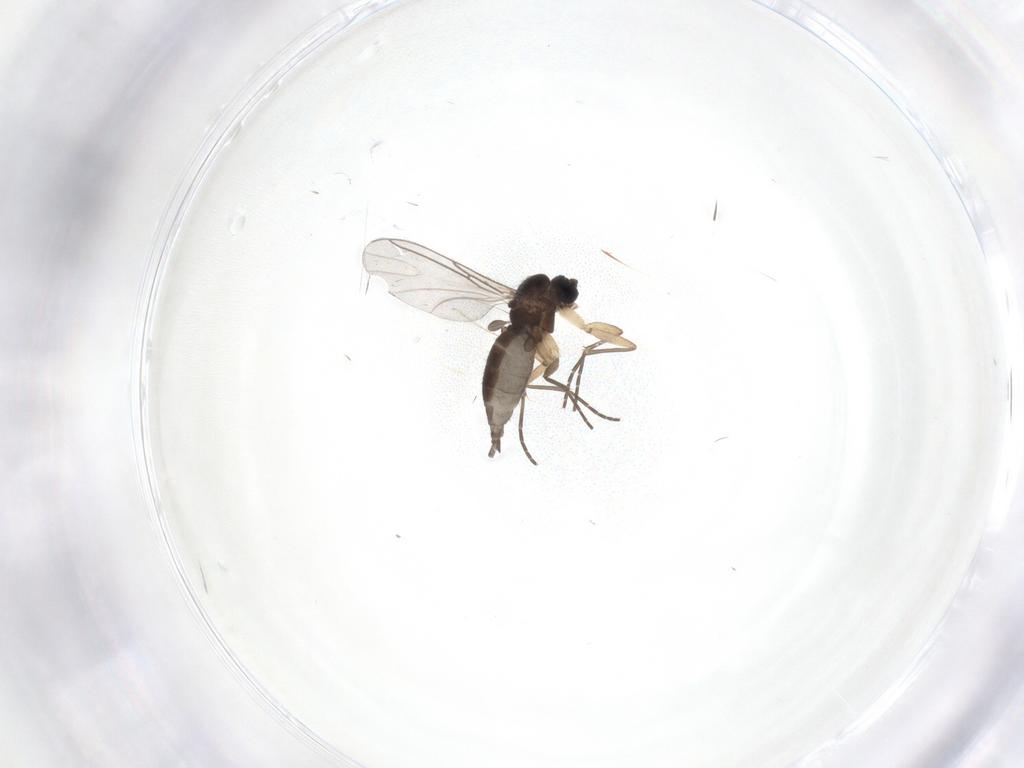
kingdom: Animalia
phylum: Arthropoda
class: Insecta
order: Diptera
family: Sciaridae
